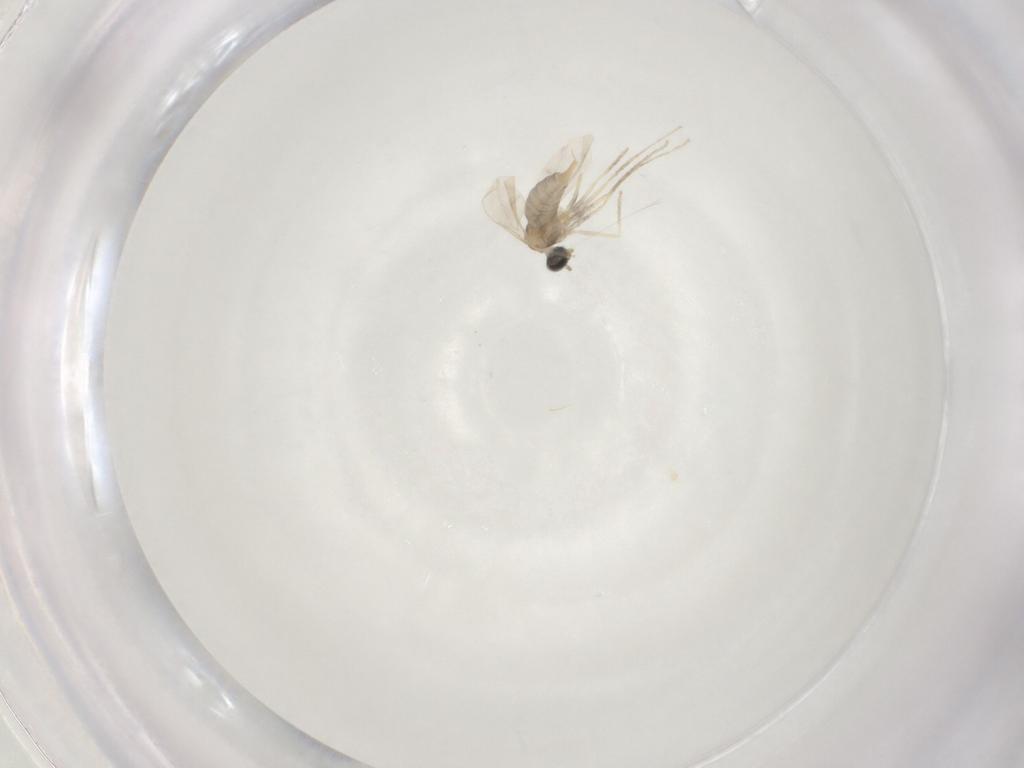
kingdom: Animalia
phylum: Arthropoda
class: Insecta
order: Diptera
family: Cecidomyiidae
